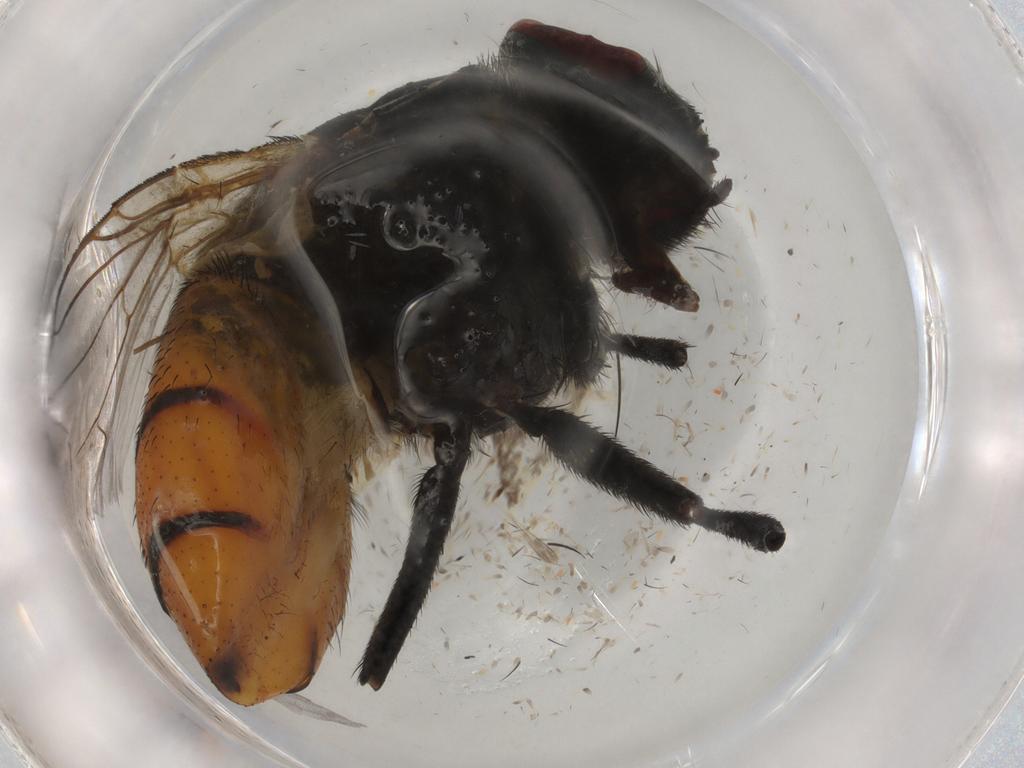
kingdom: Animalia
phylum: Arthropoda
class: Insecta
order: Diptera
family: Muscidae
